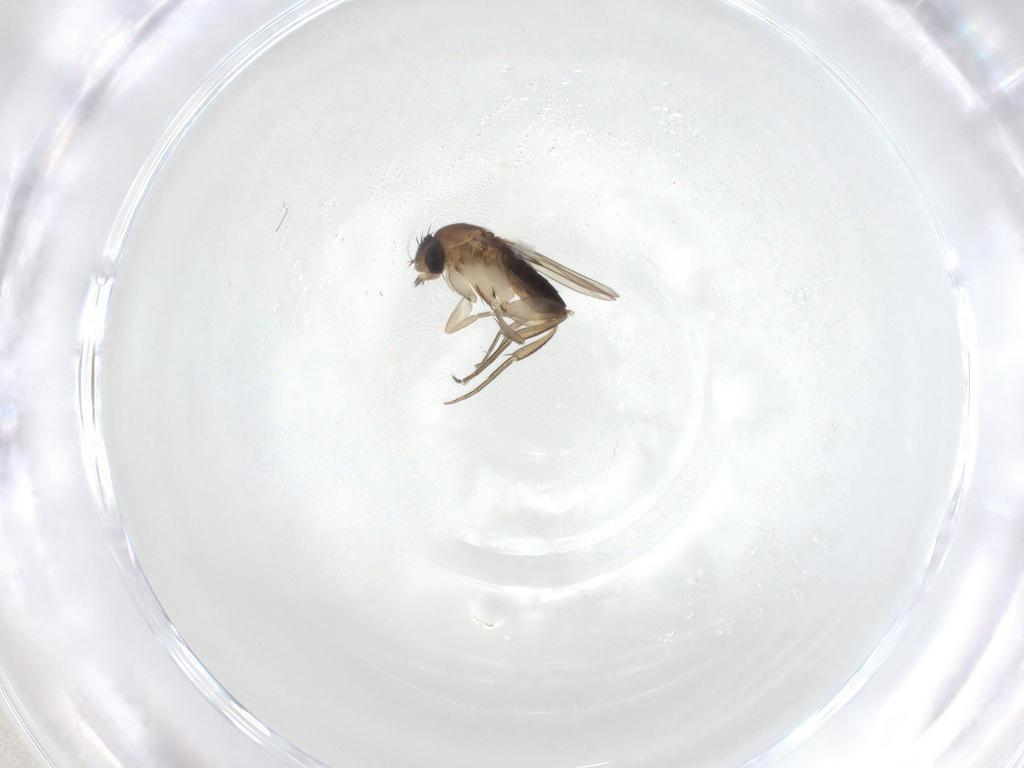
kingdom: Animalia
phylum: Arthropoda
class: Insecta
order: Diptera
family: Phoridae
